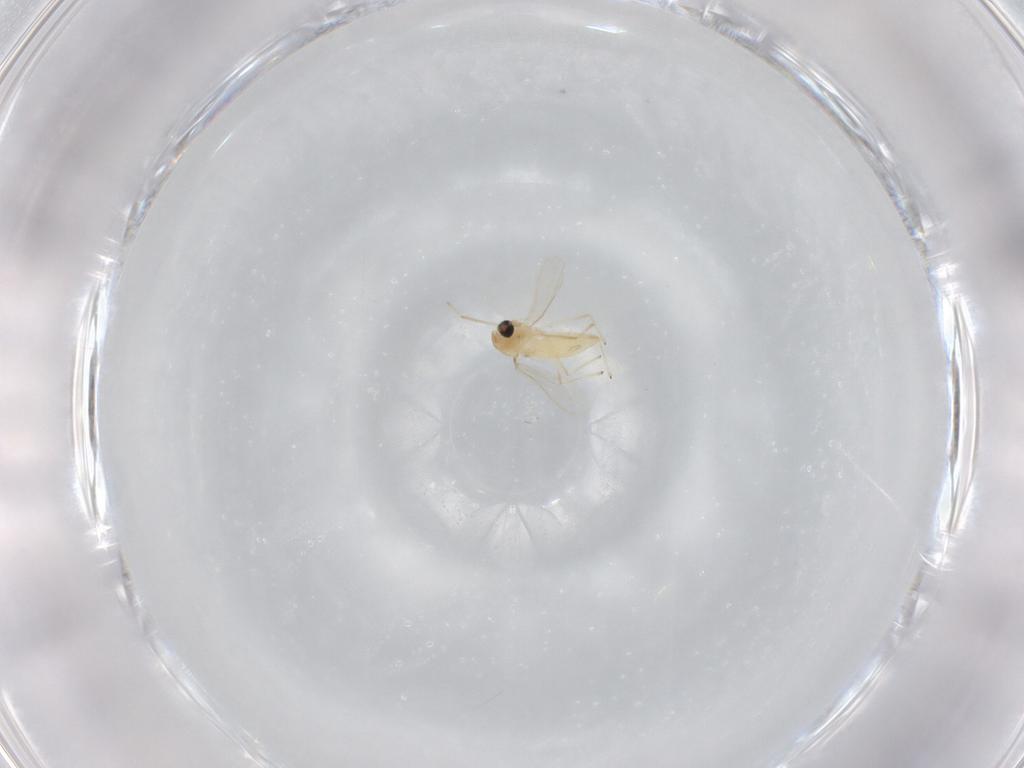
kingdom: Animalia
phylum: Arthropoda
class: Insecta
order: Diptera
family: Chironomidae
